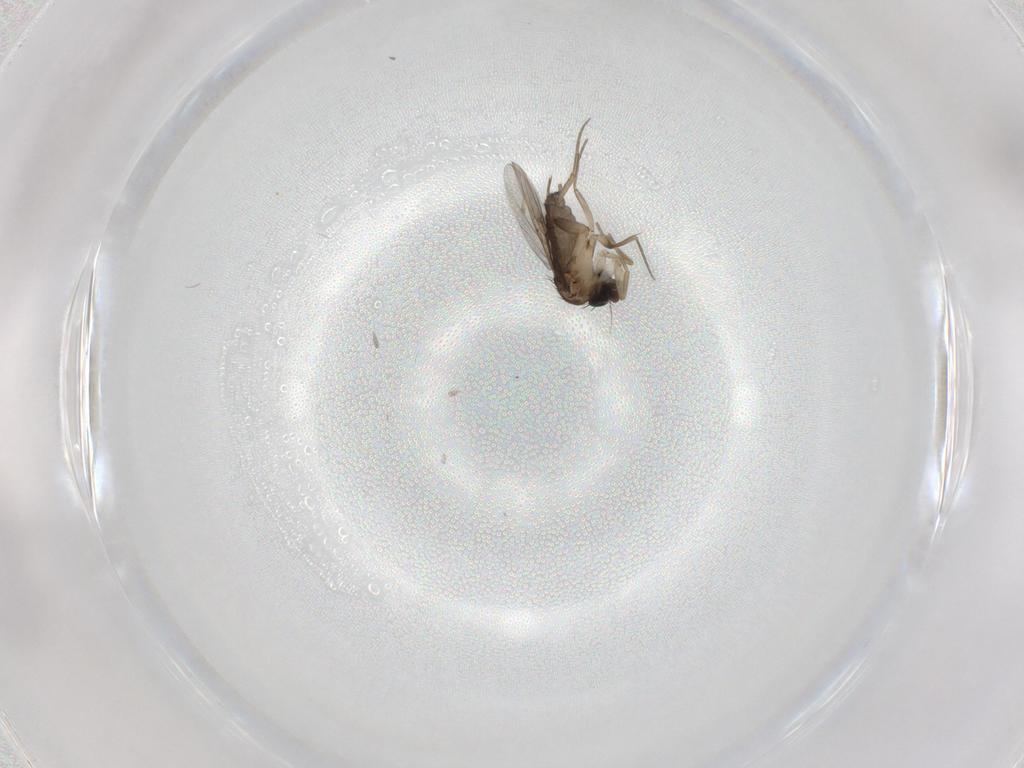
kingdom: Animalia
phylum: Arthropoda
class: Insecta
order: Diptera
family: Phoridae
